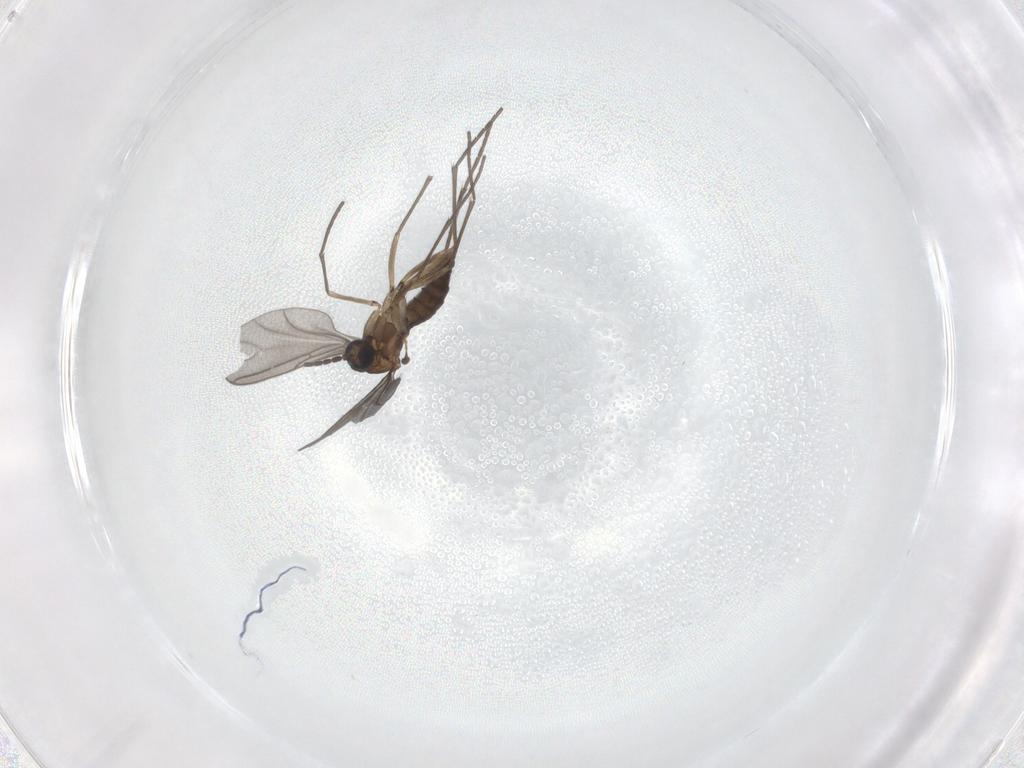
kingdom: Animalia
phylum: Arthropoda
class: Insecta
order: Diptera
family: Sciaridae
